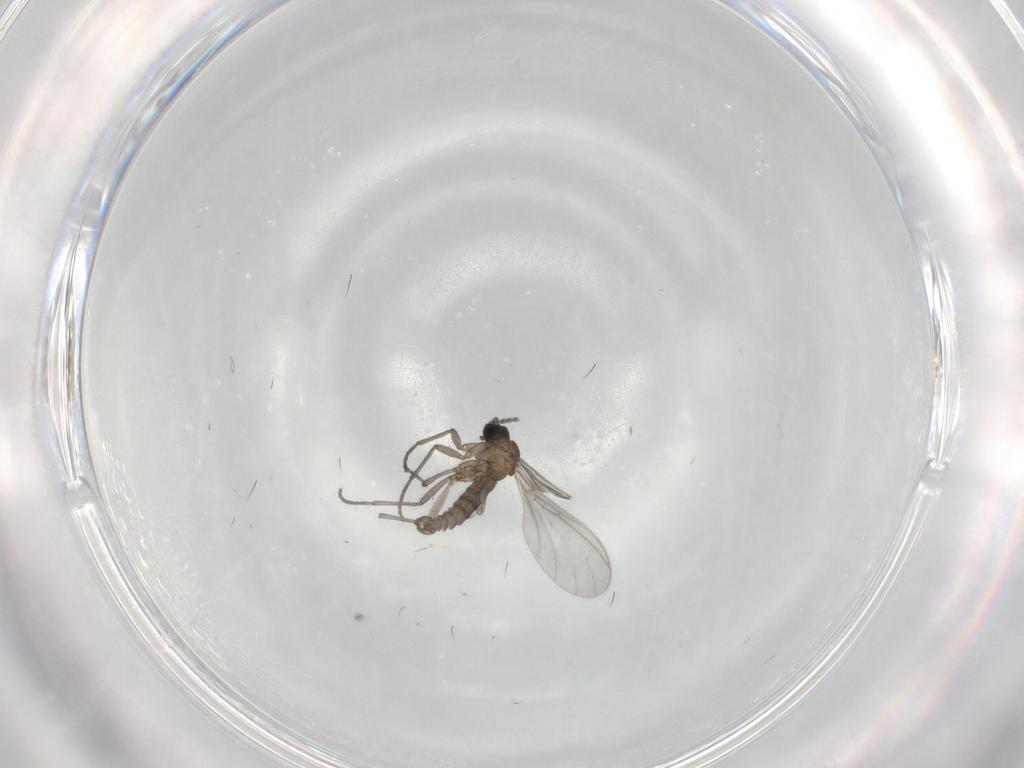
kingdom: Animalia
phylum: Arthropoda
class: Insecta
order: Diptera
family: Sciaridae
